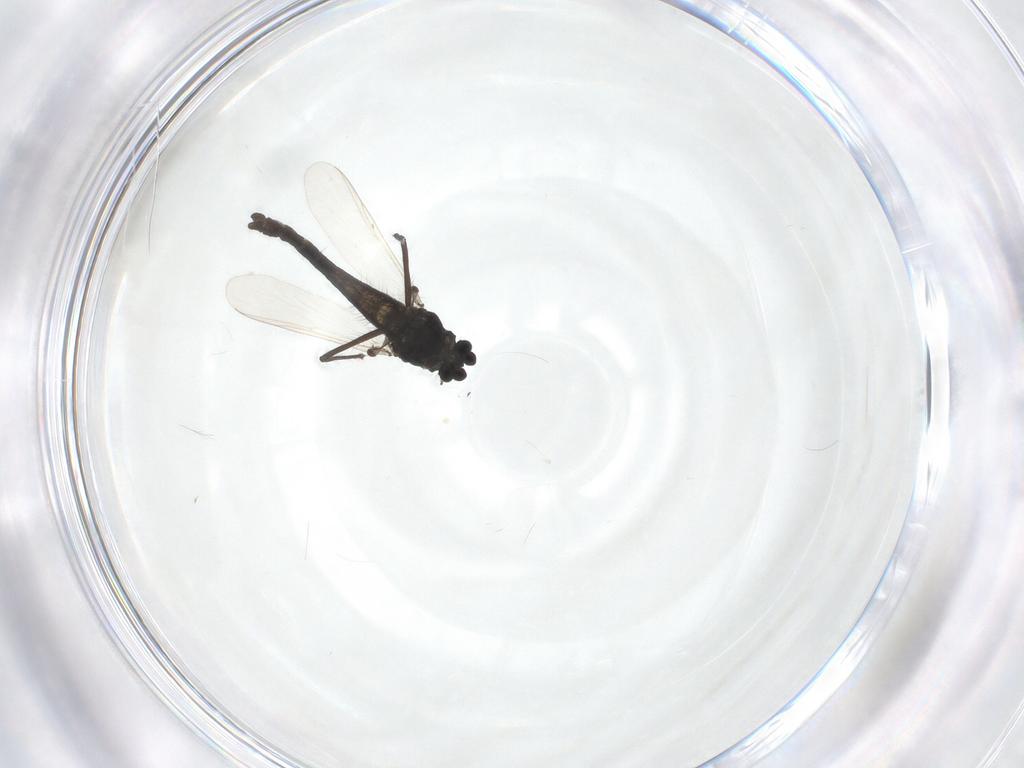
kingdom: Animalia
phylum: Arthropoda
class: Insecta
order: Diptera
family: Chironomidae
